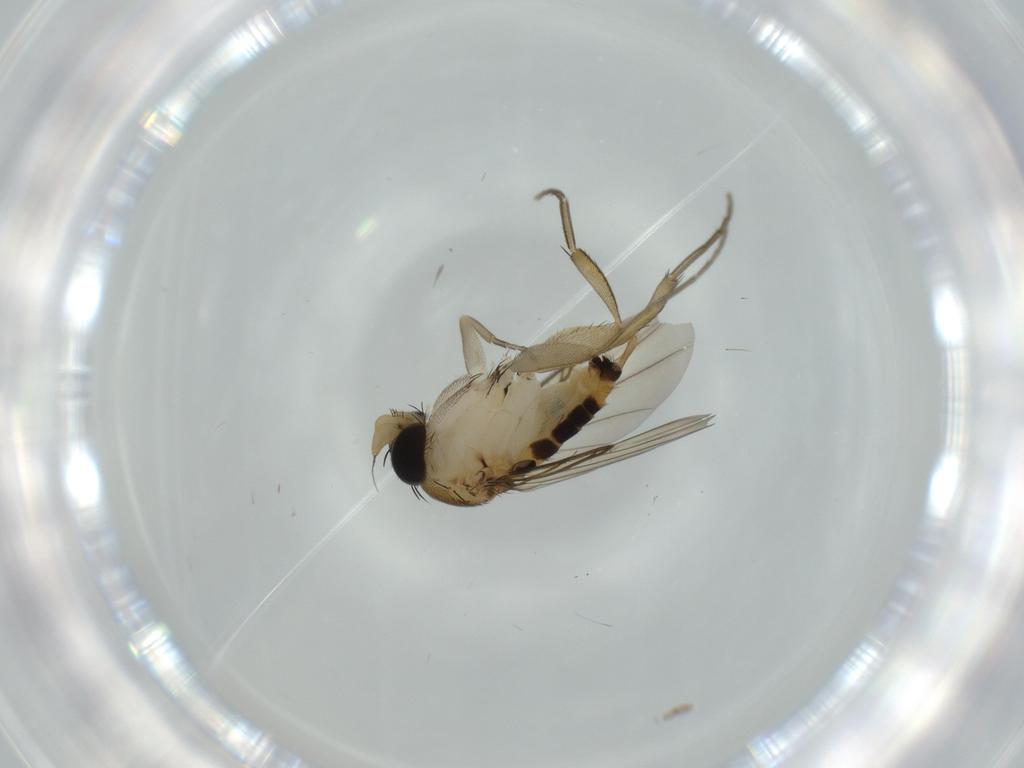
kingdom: Animalia
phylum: Arthropoda
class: Insecta
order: Diptera
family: Phoridae
